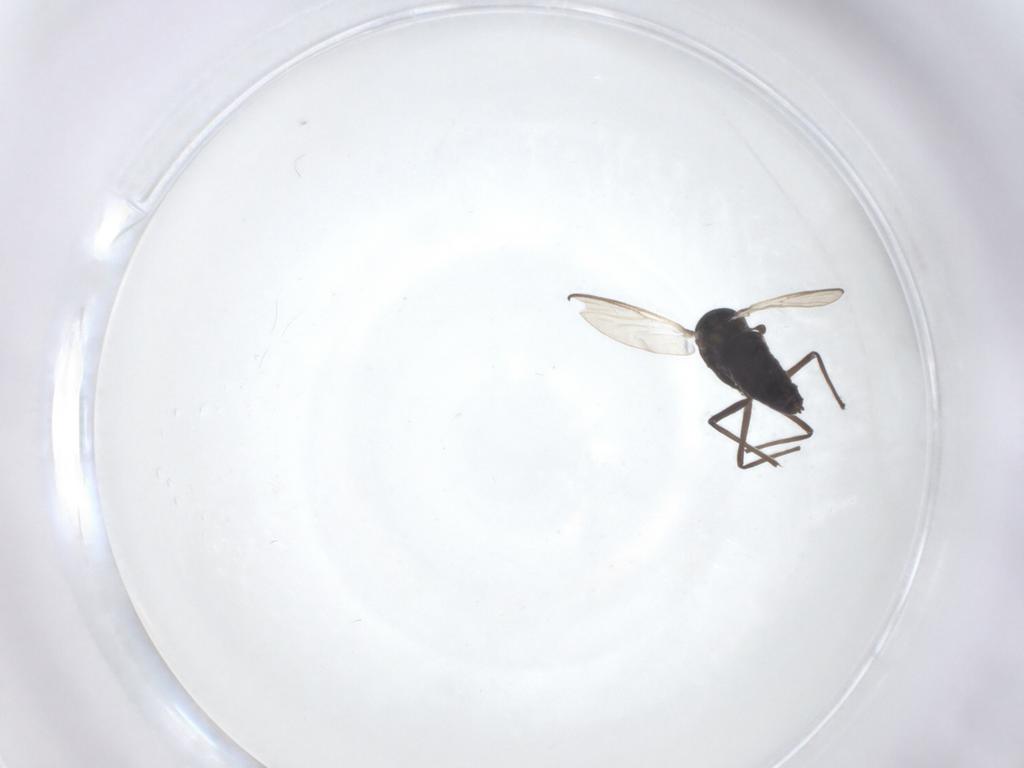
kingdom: Animalia
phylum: Arthropoda
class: Insecta
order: Diptera
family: Chironomidae
